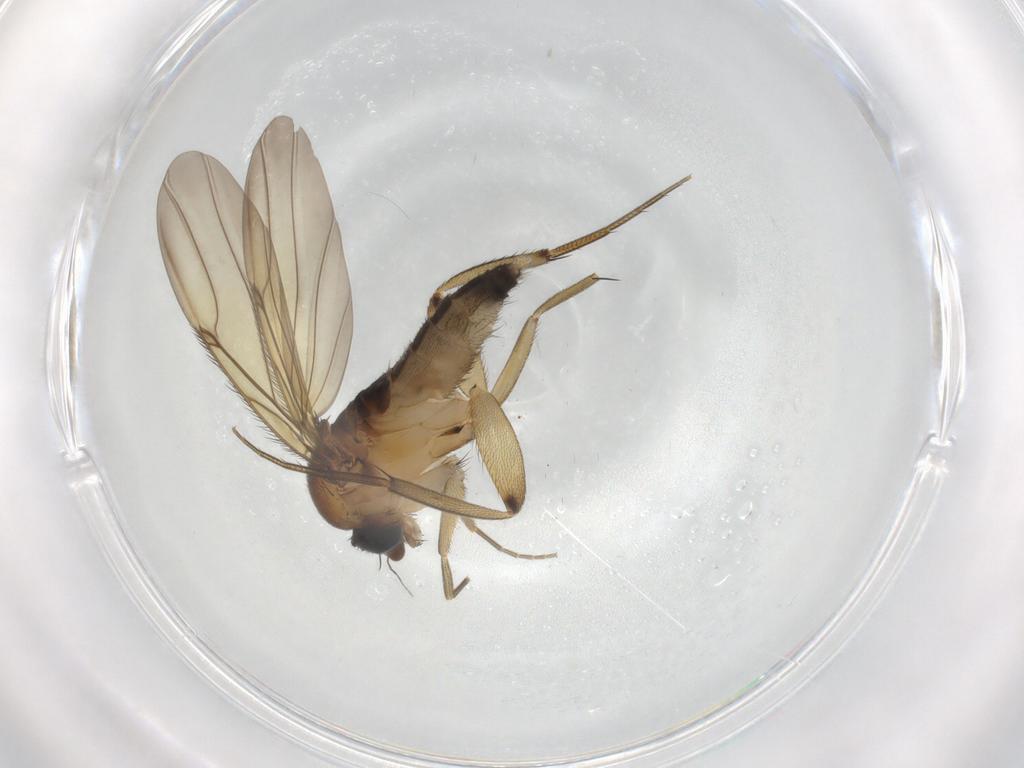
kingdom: Animalia
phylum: Arthropoda
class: Insecta
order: Diptera
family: Phoridae
